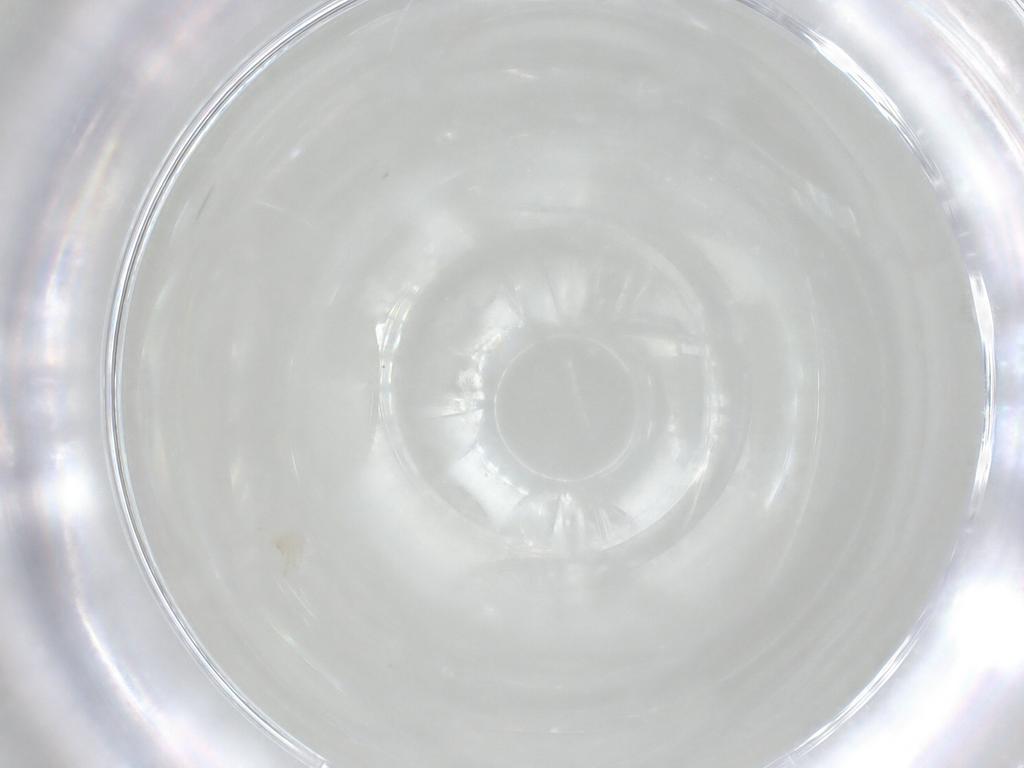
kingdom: Animalia
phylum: Arthropoda
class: Arachnida
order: Trombidiformes
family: Erythraeidae
